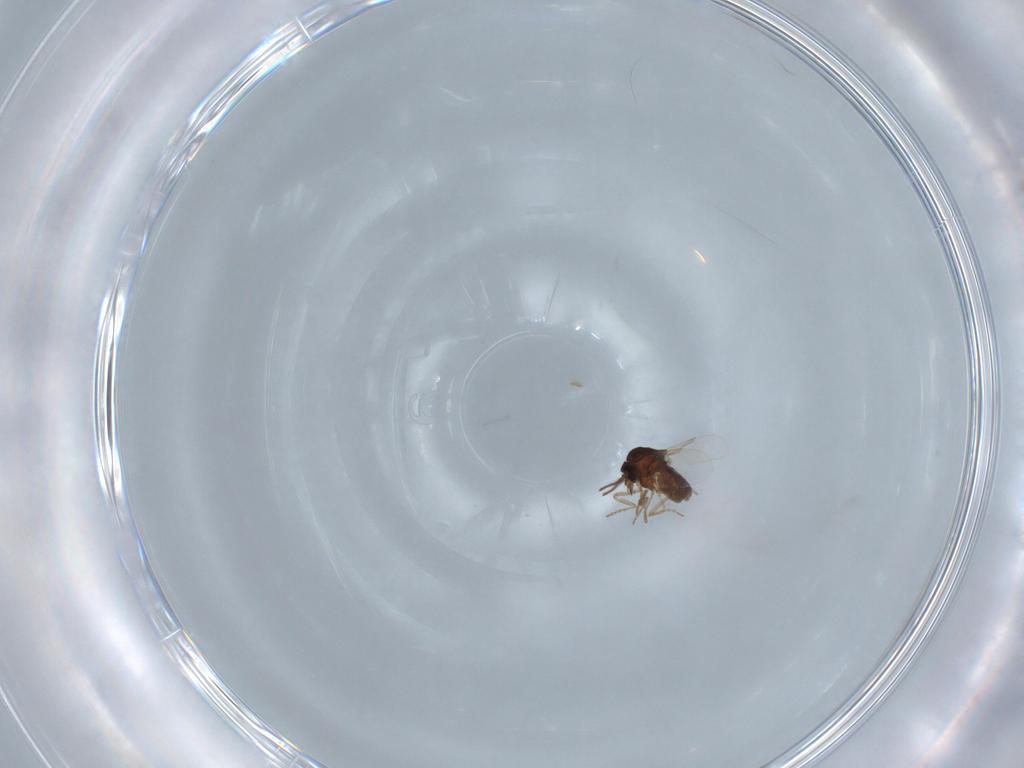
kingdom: Animalia
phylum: Arthropoda
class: Insecta
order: Diptera
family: Ceratopogonidae
